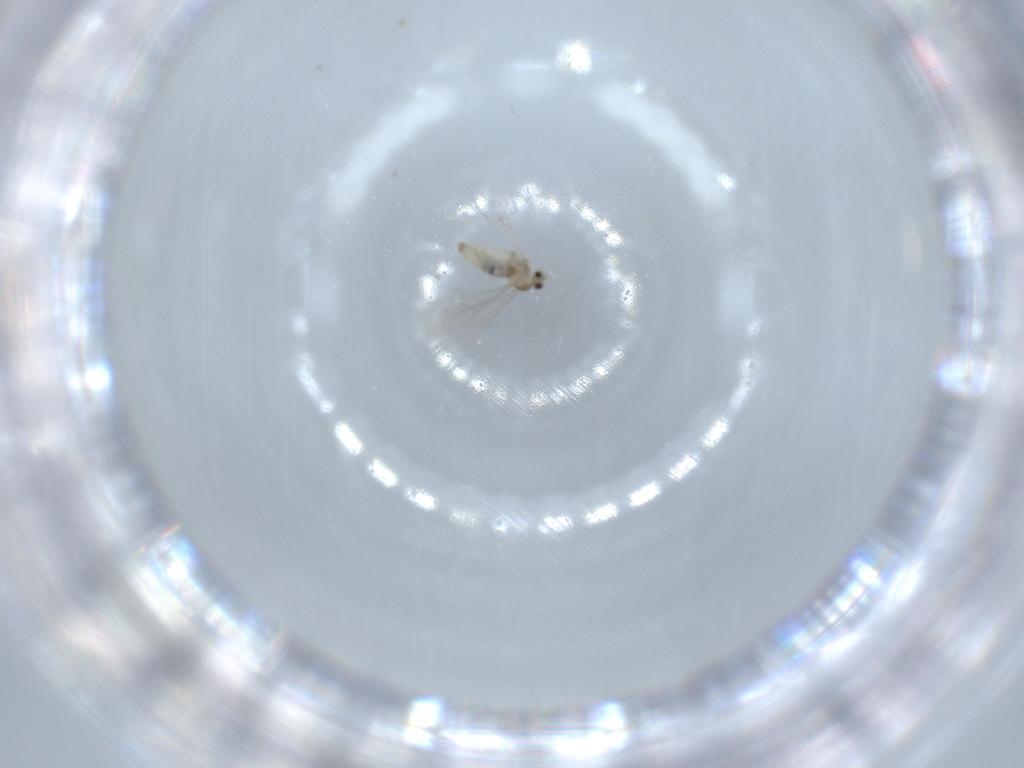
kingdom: Animalia
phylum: Arthropoda
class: Insecta
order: Diptera
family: Cecidomyiidae
